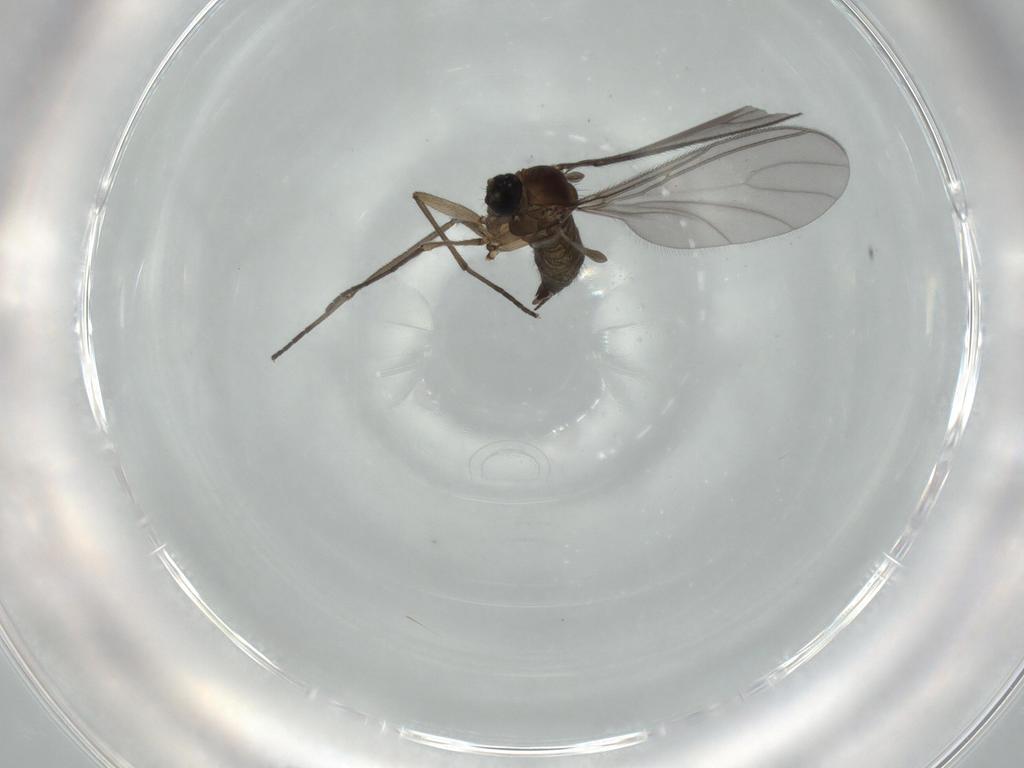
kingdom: Animalia
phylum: Arthropoda
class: Insecta
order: Diptera
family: Sciaridae
